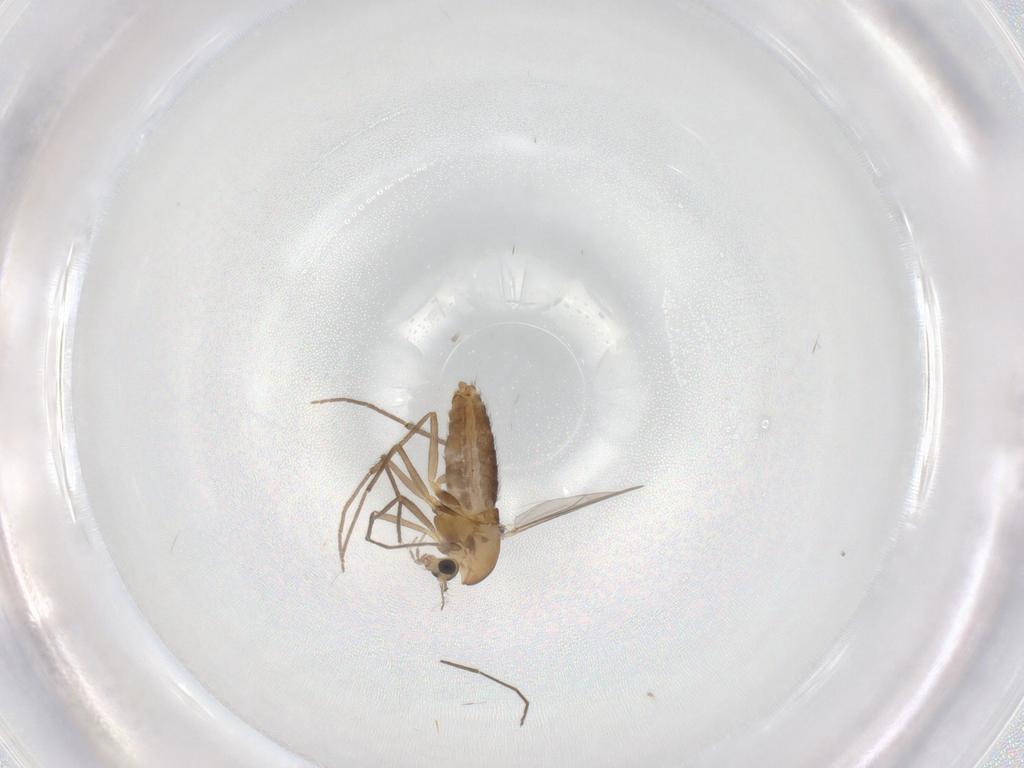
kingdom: Animalia
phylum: Arthropoda
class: Insecta
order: Diptera
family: Chironomidae
